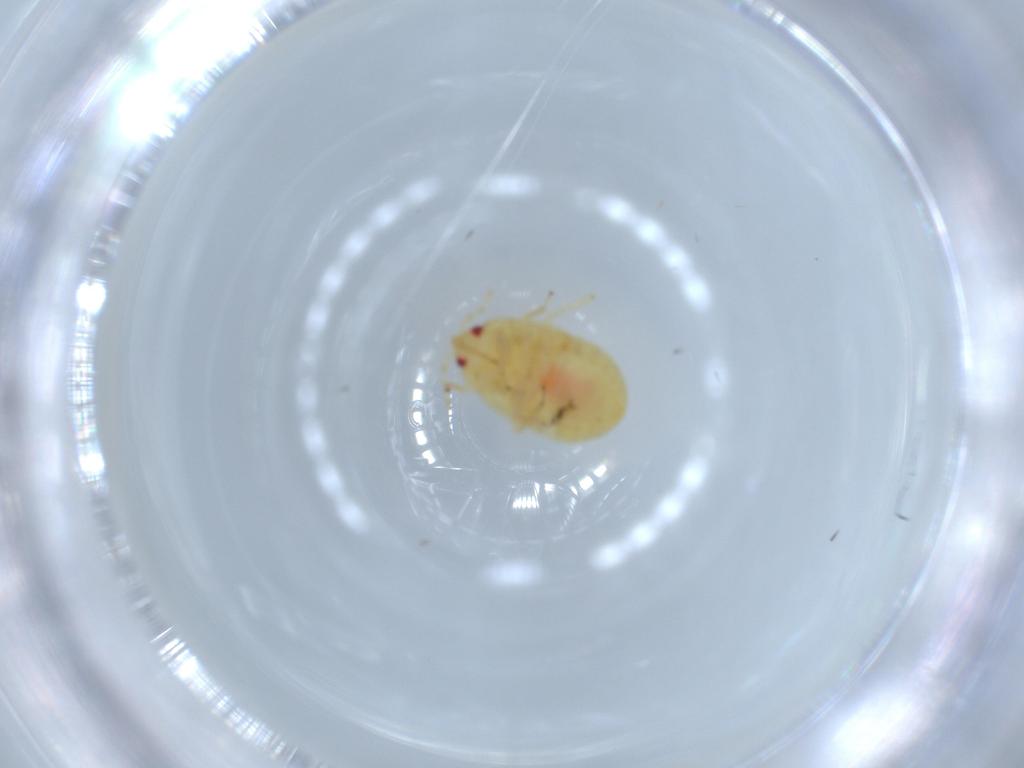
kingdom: Animalia
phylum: Arthropoda
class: Insecta
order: Hemiptera
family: Anthocoridae
